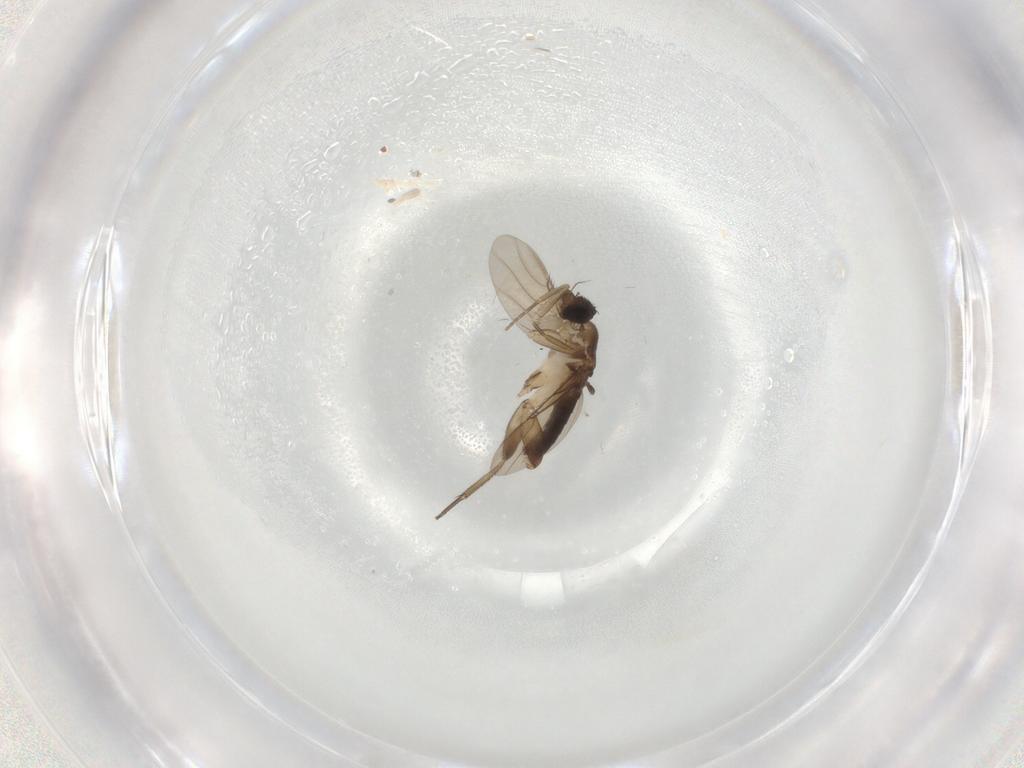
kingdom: Animalia
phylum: Arthropoda
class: Insecta
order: Diptera
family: Phoridae
